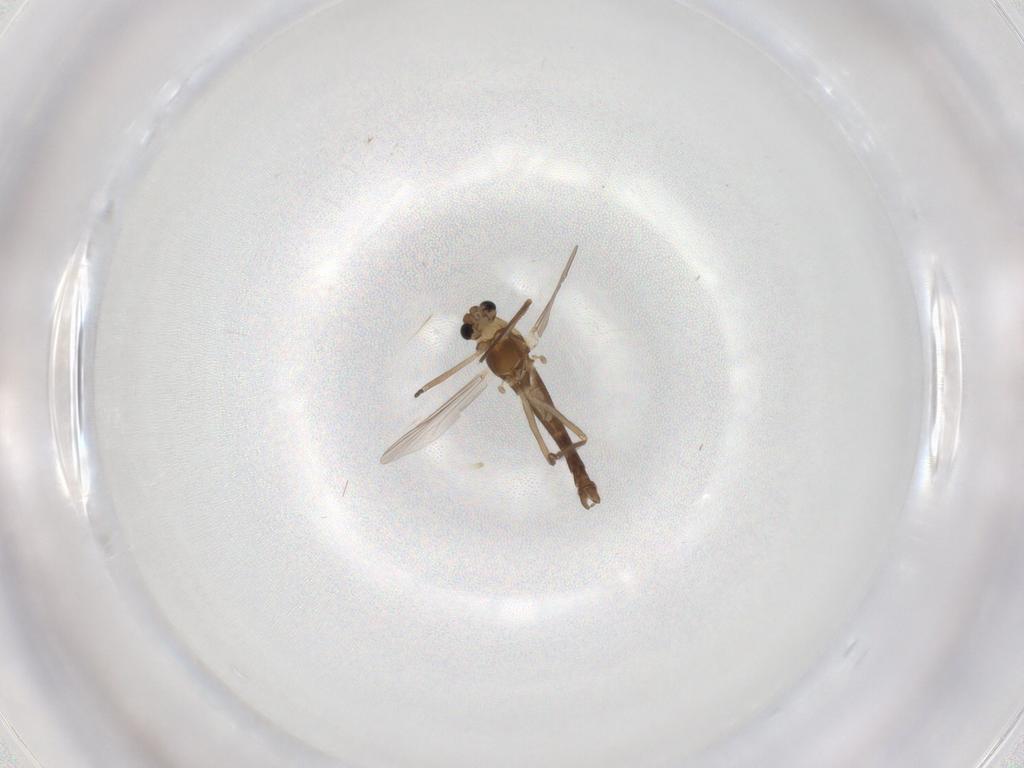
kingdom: Animalia
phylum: Arthropoda
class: Insecta
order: Diptera
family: Chironomidae
